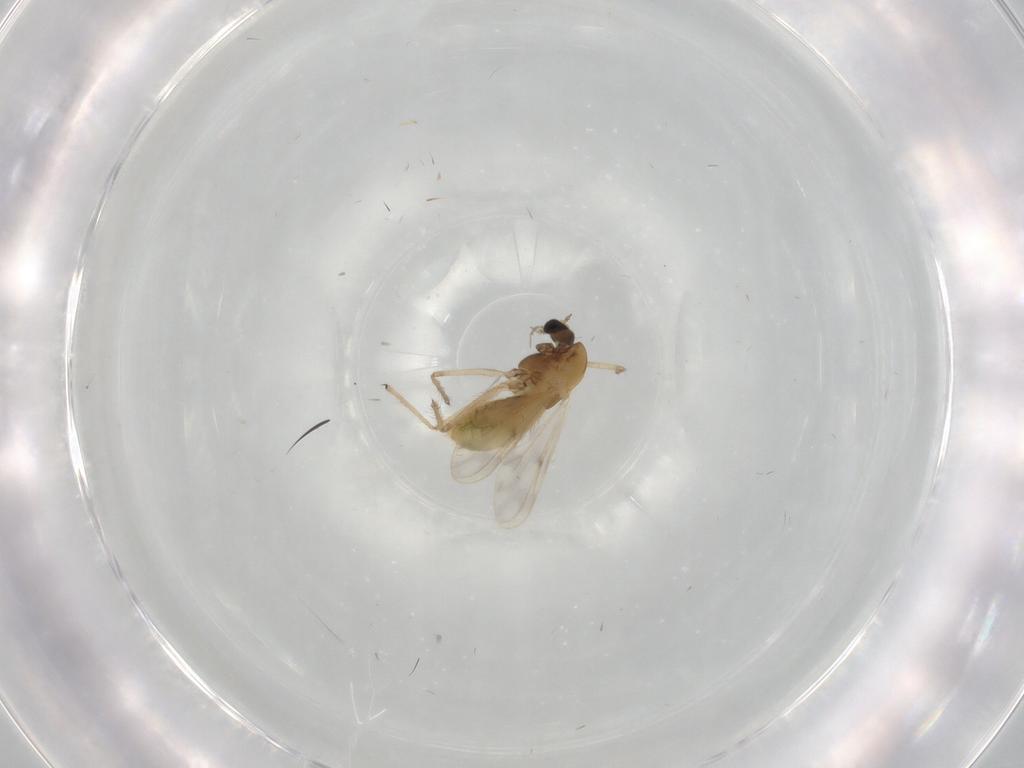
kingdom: Animalia
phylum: Arthropoda
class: Insecta
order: Diptera
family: Chironomidae
